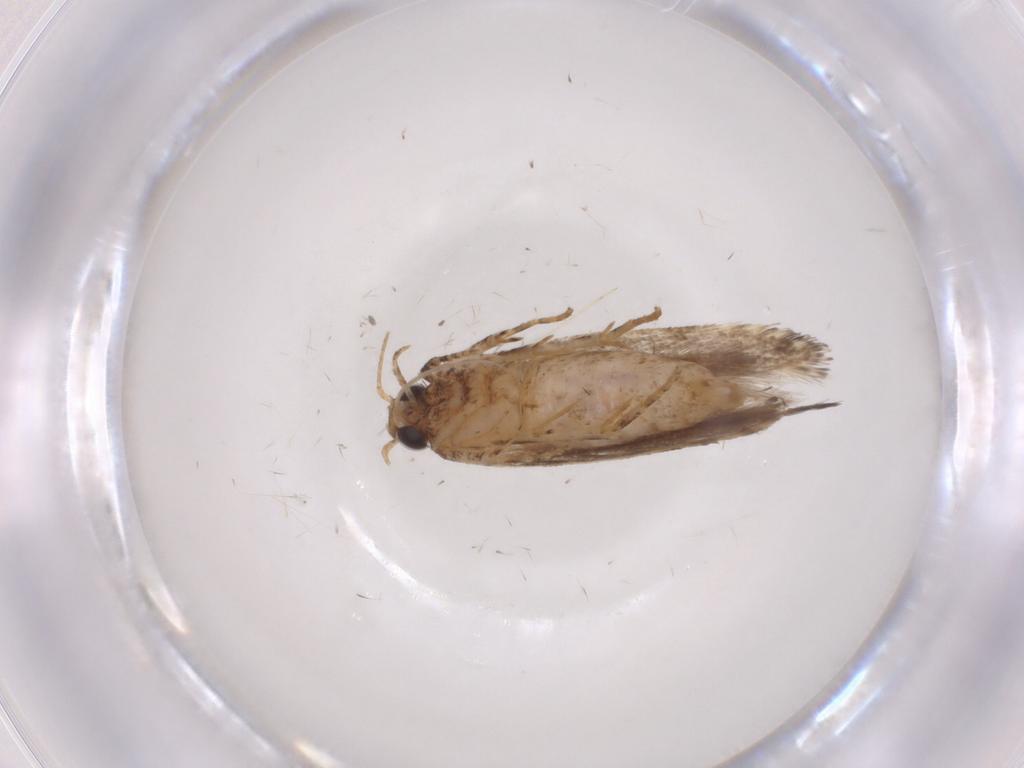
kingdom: Animalia
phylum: Arthropoda
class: Insecta
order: Lepidoptera
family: Gelechiidae
